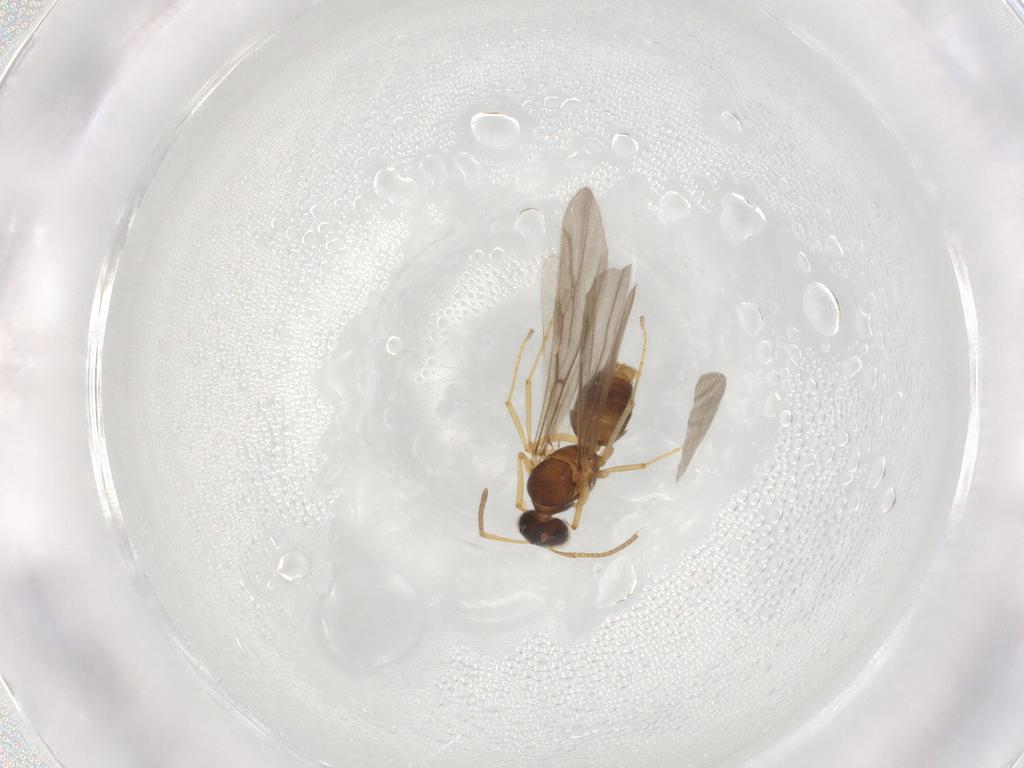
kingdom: Animalia
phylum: Arthropoda
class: Insecta
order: Hymenoptera
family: Formicidae
